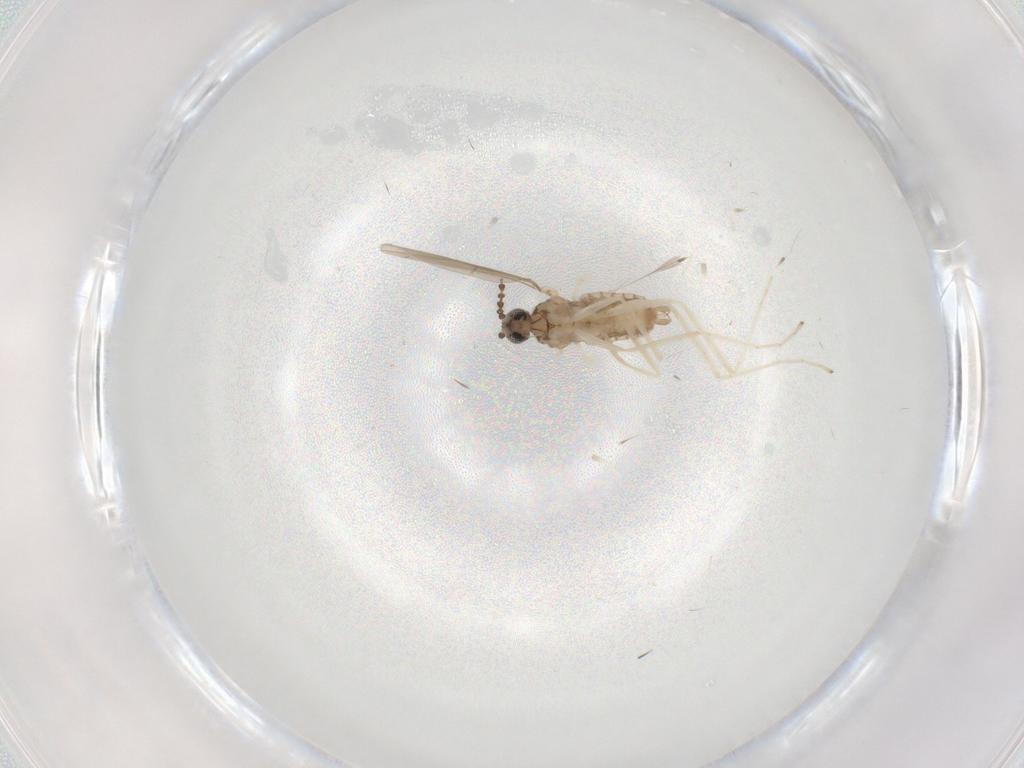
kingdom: Animalia
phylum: Arthropoda
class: Insecta
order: Diptera
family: Phoridae
